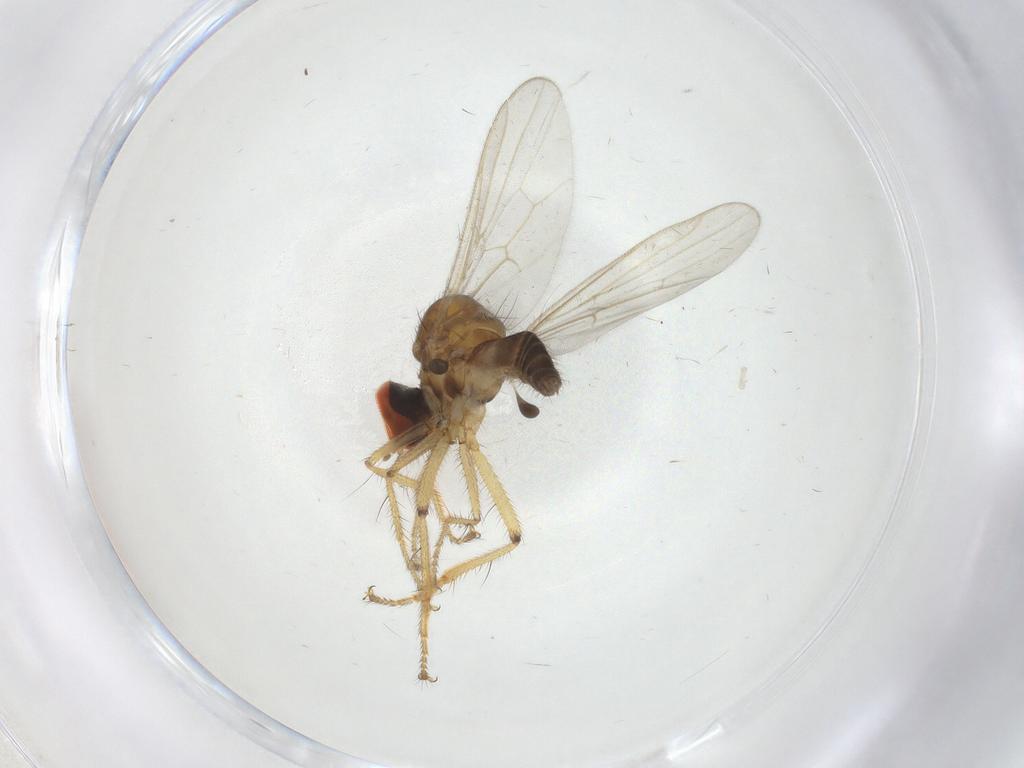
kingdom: Animalia
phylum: Arthropoda
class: Insecta
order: Diptera
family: Hybotidae
